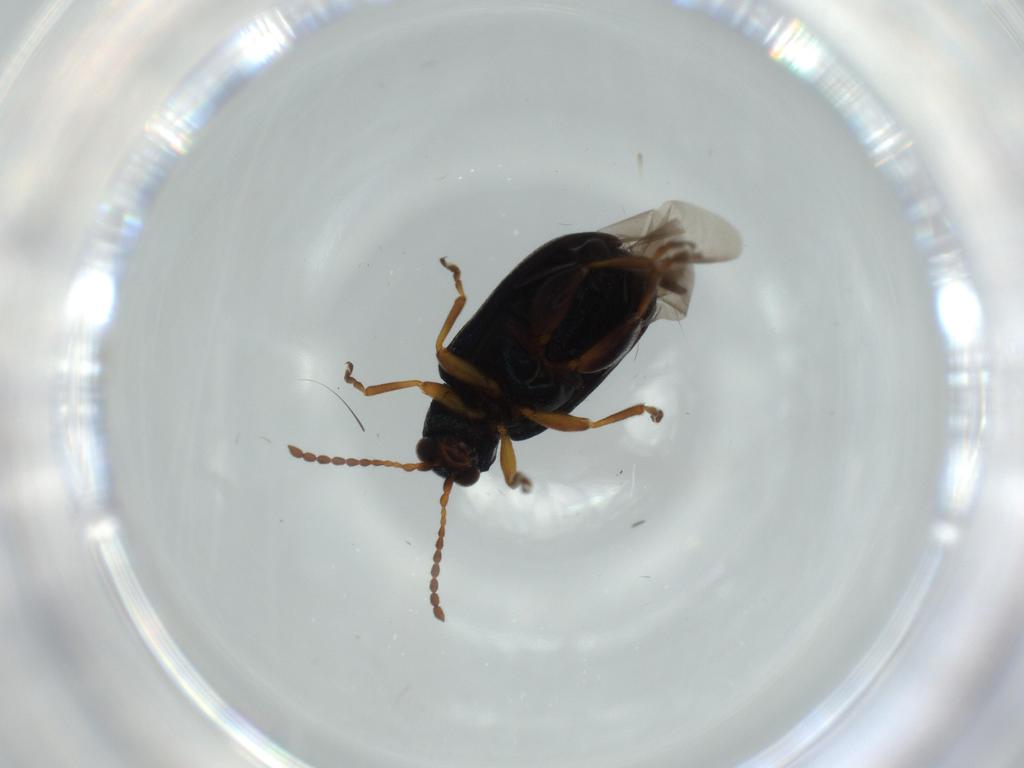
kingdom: Animalia
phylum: Arthropoda
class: Insecta
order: Coleoptera
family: Chrysomelidae
